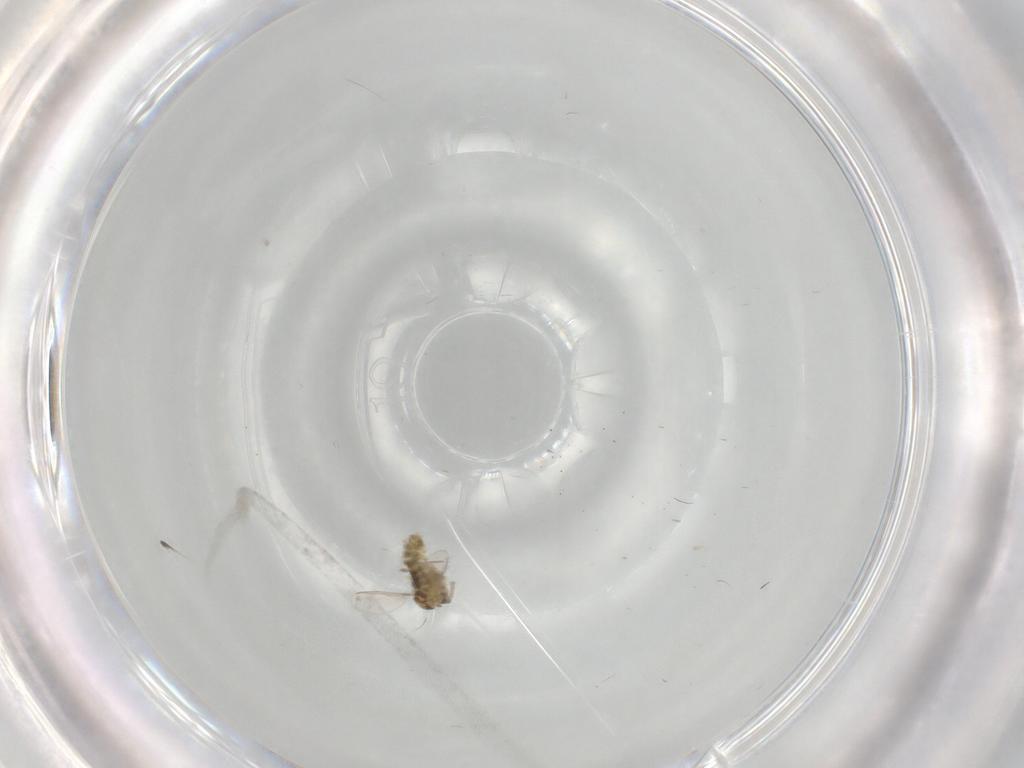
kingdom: Animalia
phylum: Arthropoda
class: Insecta
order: Diptera
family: Chironomidae
